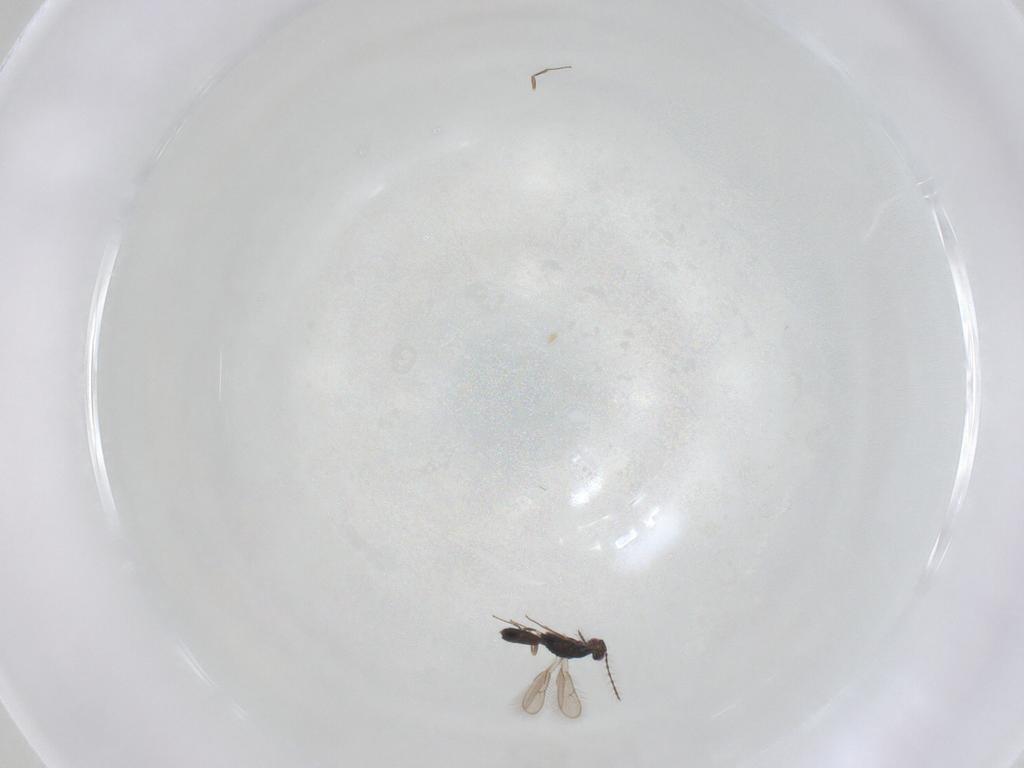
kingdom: Animalia
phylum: Arthropoda
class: Insecta
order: Hymenoptera
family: Pteromalidae
